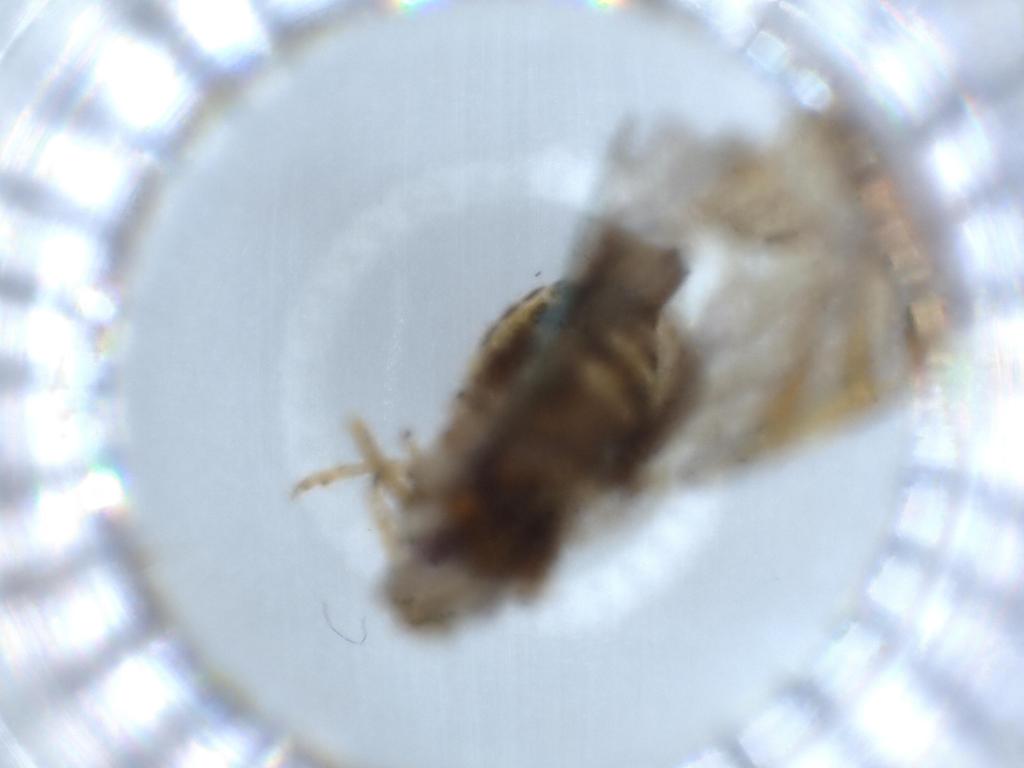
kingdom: Animalia
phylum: Arthropoda
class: Insecta
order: Hemiptera
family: Cixiidae
